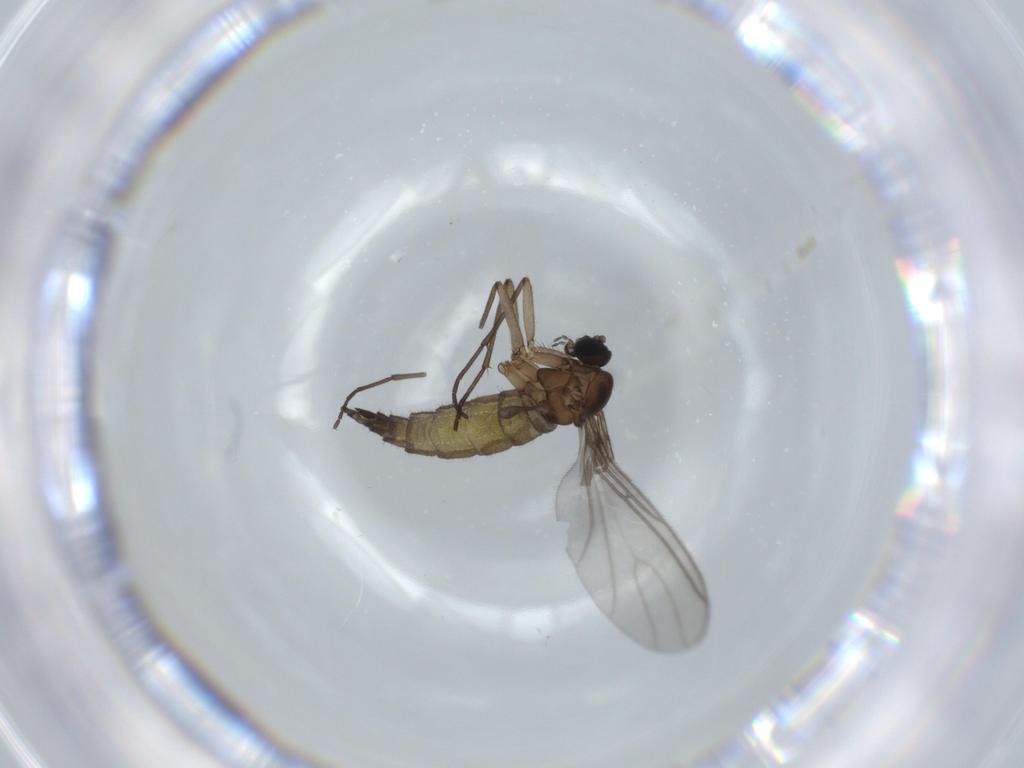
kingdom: Animalia
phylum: Arthropoda
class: Insecta
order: Diptera
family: Sciaridae
